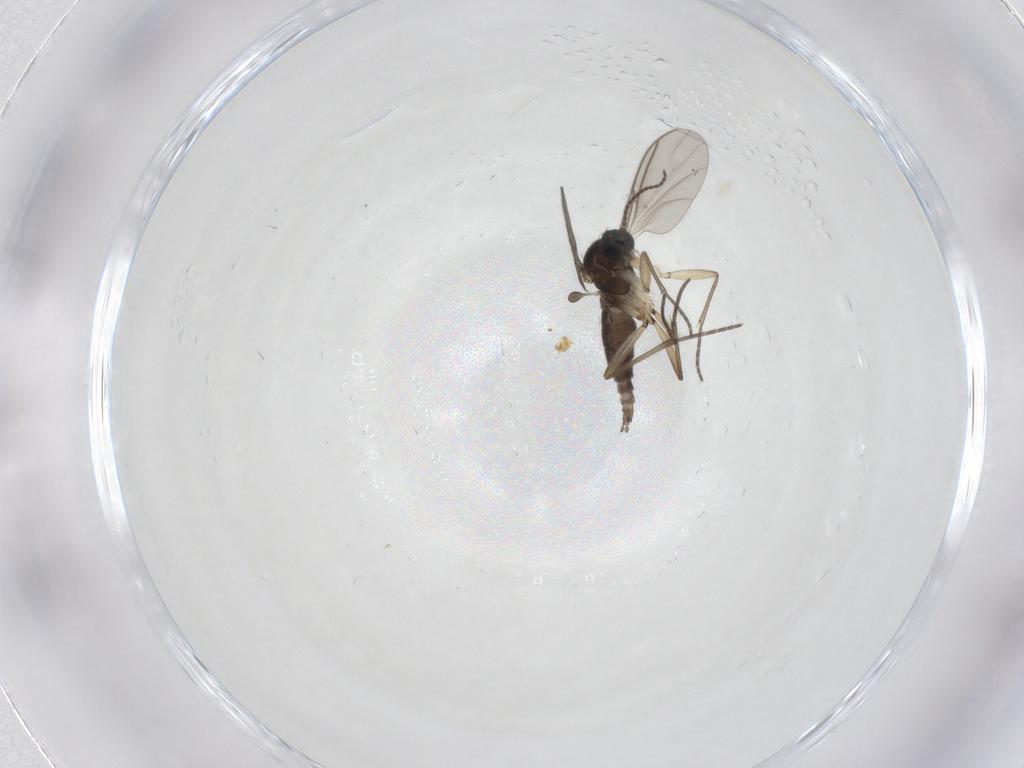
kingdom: Animalia
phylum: Arthropoda
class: Insecta
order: Diptera
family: Sciaridae
